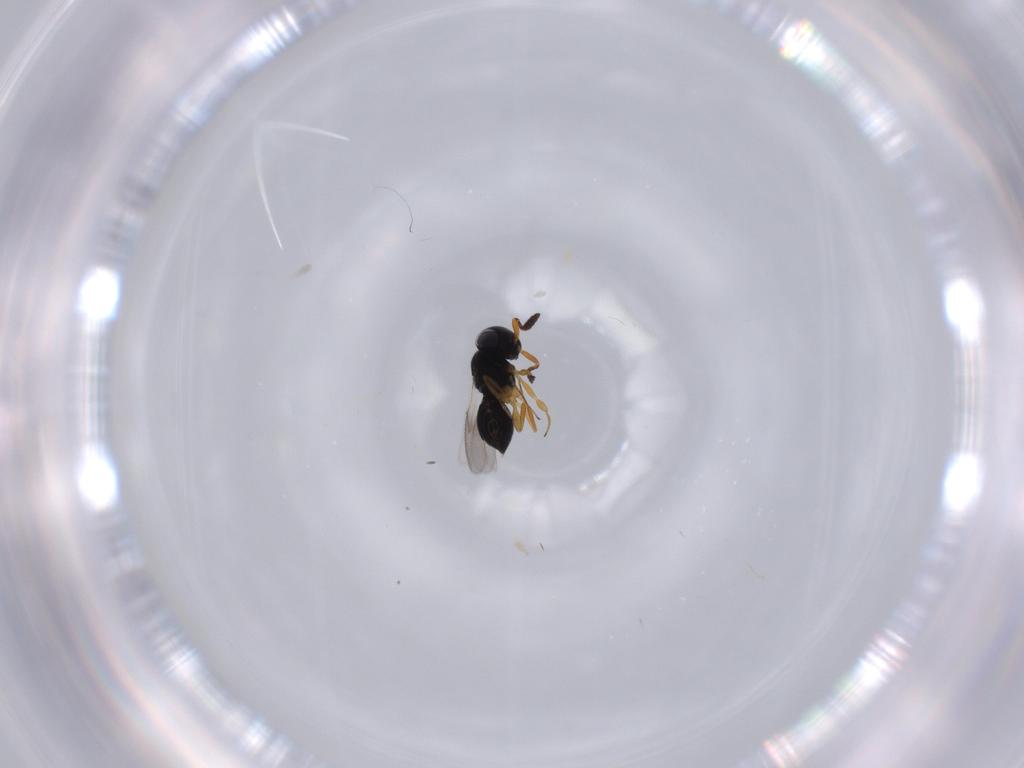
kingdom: Animalia
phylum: Arthropoda
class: Insecta
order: Hymenoptera
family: Scelionidae
